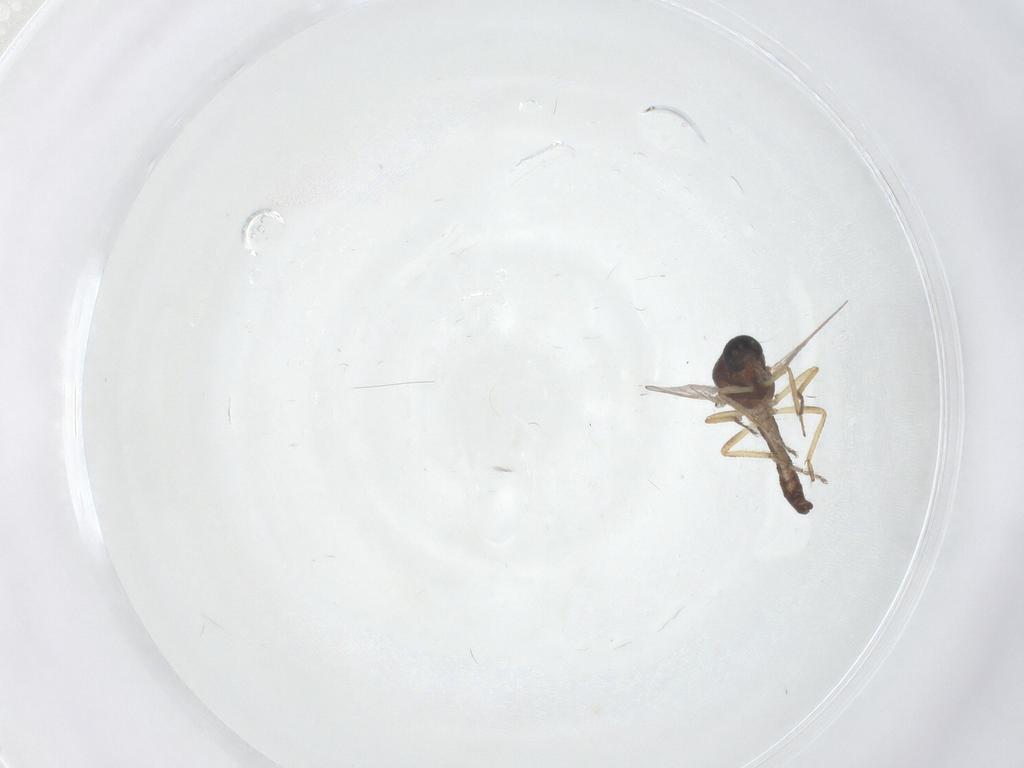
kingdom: Animalia
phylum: Arthropoda
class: Insecta
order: Diptera
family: Ceratopogonidae
